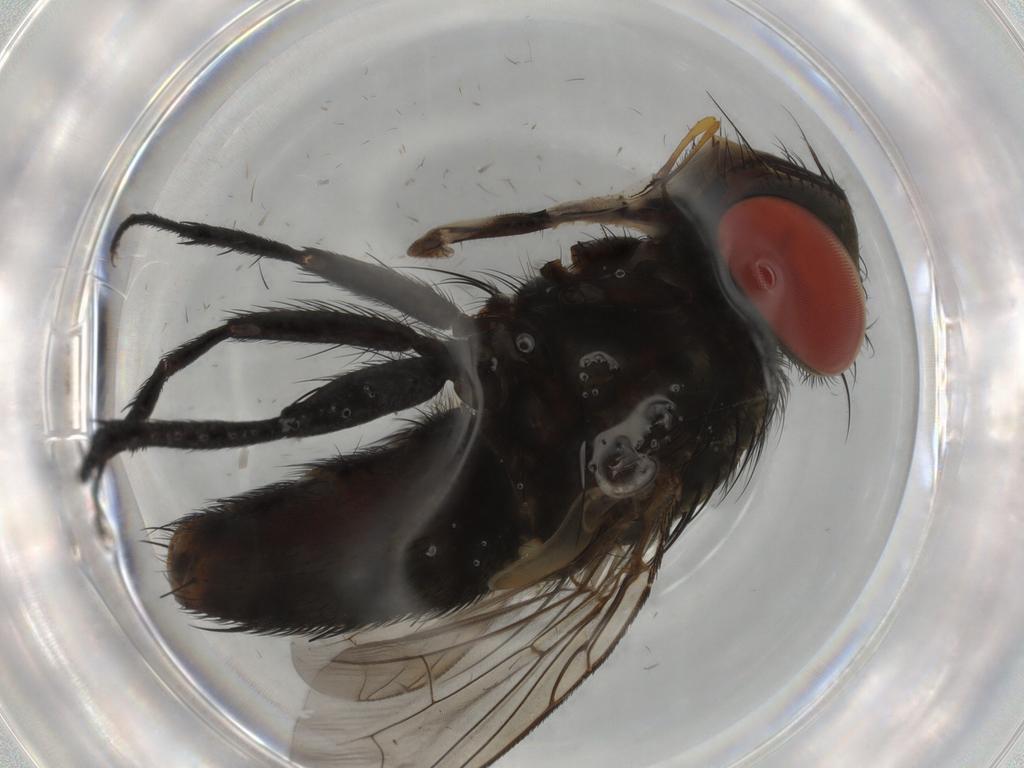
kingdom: Animalia
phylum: Arthropoda
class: Insecta
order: Diptera
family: Sarcophagidae
